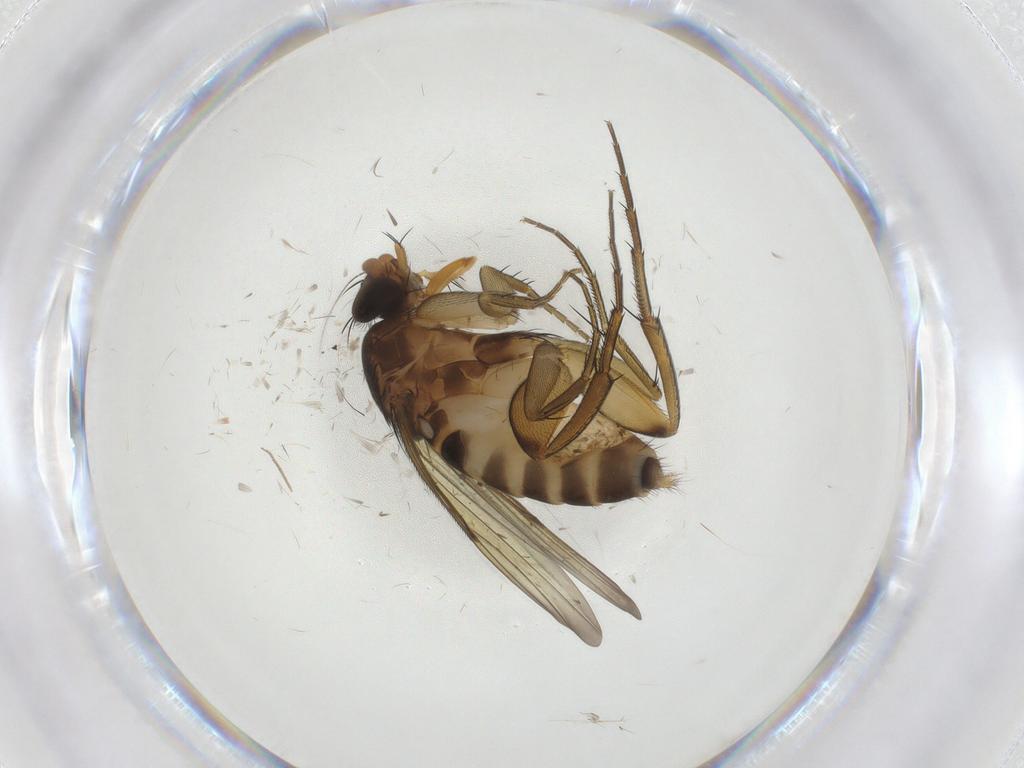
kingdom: Animalia
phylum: Arthropoda
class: Insecta
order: Diptera
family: Phoridae
